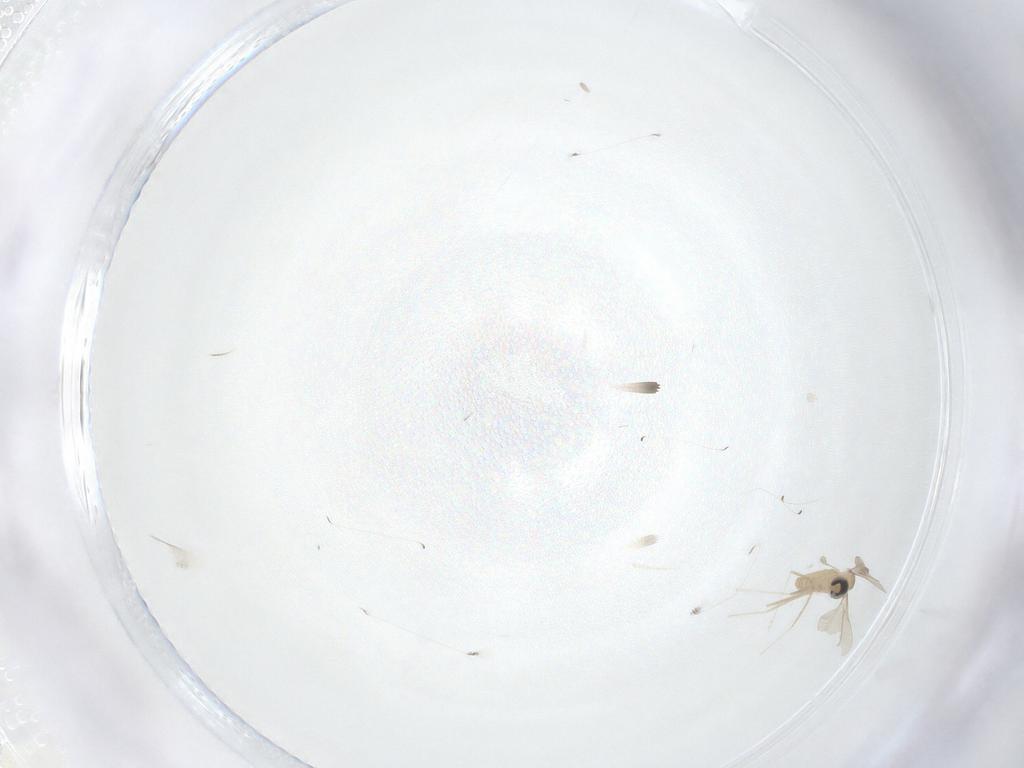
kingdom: Animalia
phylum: Arthropoda
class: Insecta
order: Diptera
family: Cecidomyiidae
